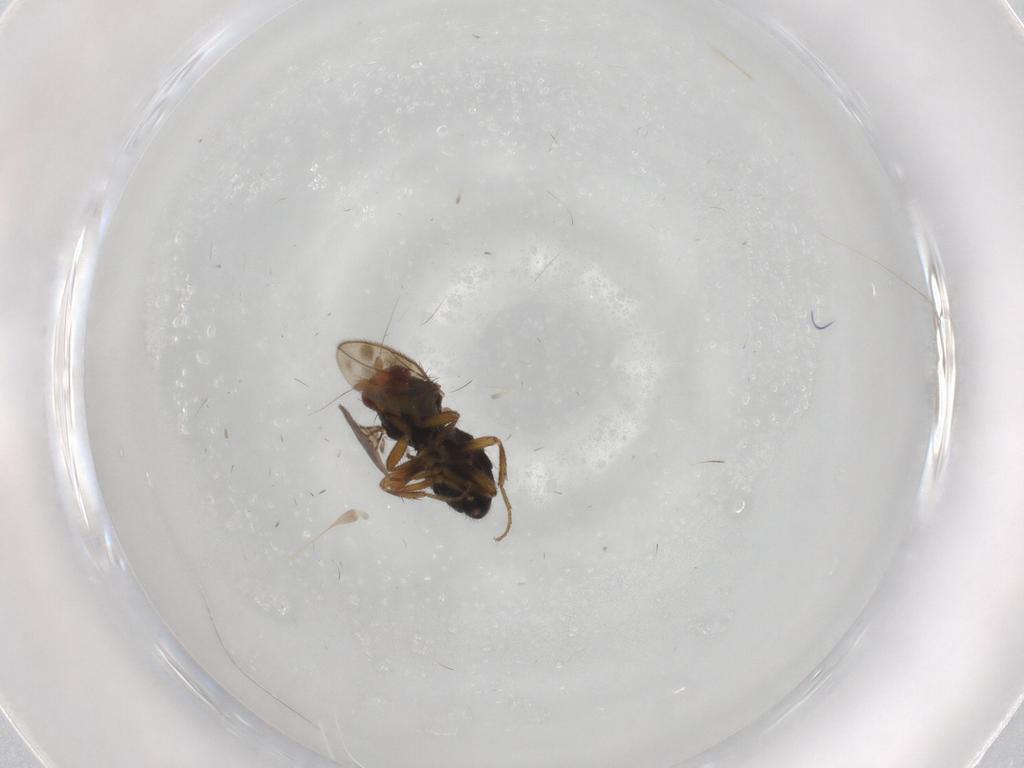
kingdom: Animalia
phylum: Arthropoda
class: Insecta
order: Diptera
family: Sphaeroceridae
